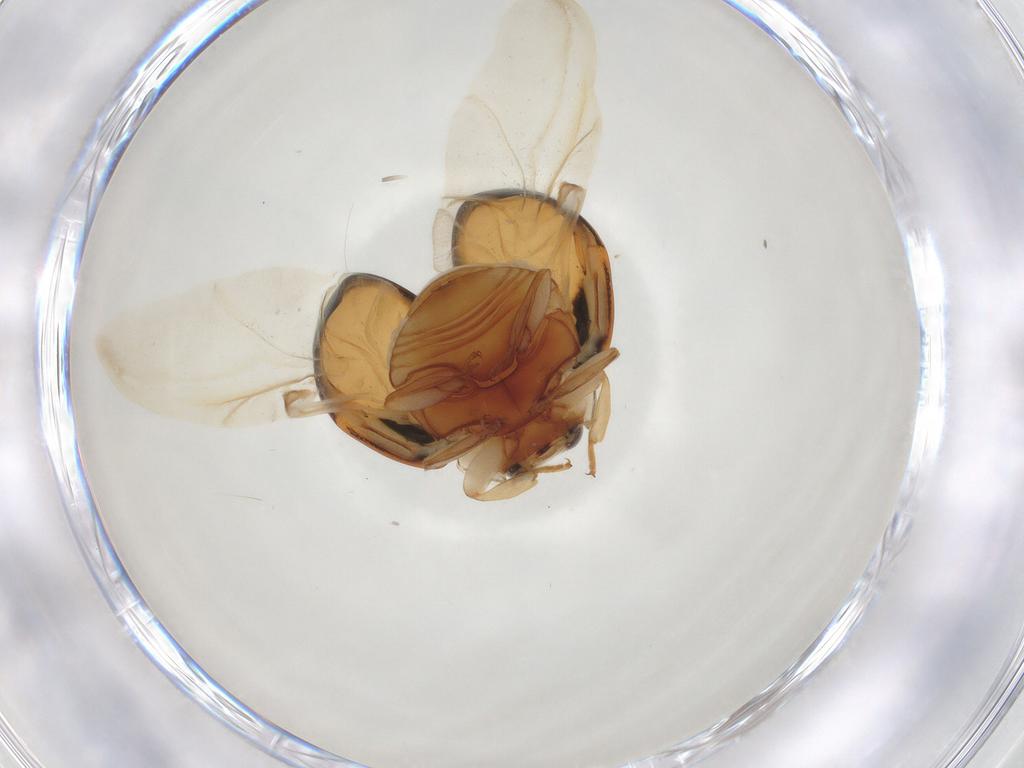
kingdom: Animalia
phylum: Arthropoda
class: Insecta
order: Coleoptera
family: Coccinellidae
